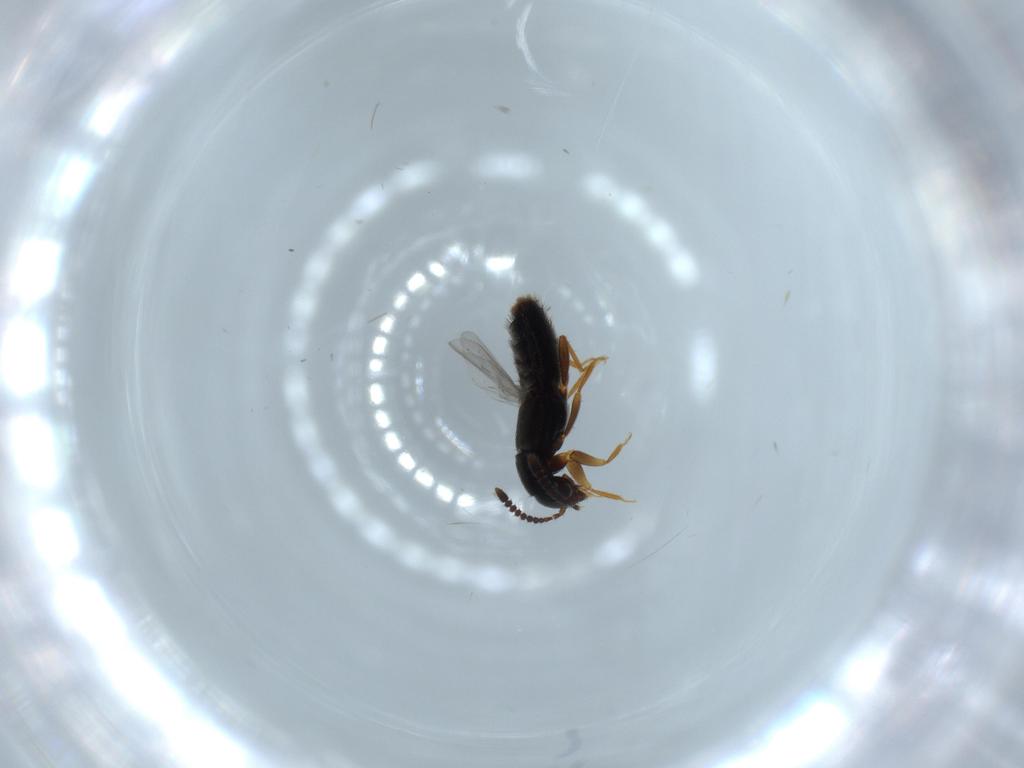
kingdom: Animalia
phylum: Arthropoda
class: Insecta
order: Coleoptera
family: Staphylinidae
